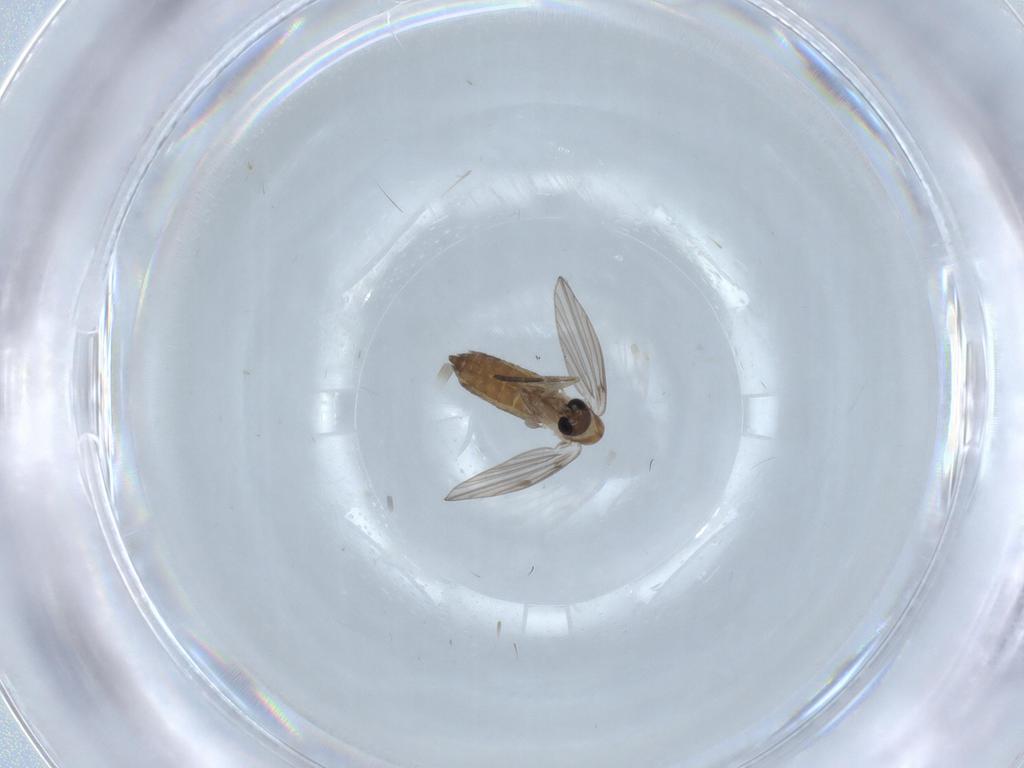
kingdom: Animalia
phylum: Arthropoda
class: Insecta
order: Diptera
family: Psychodidae
